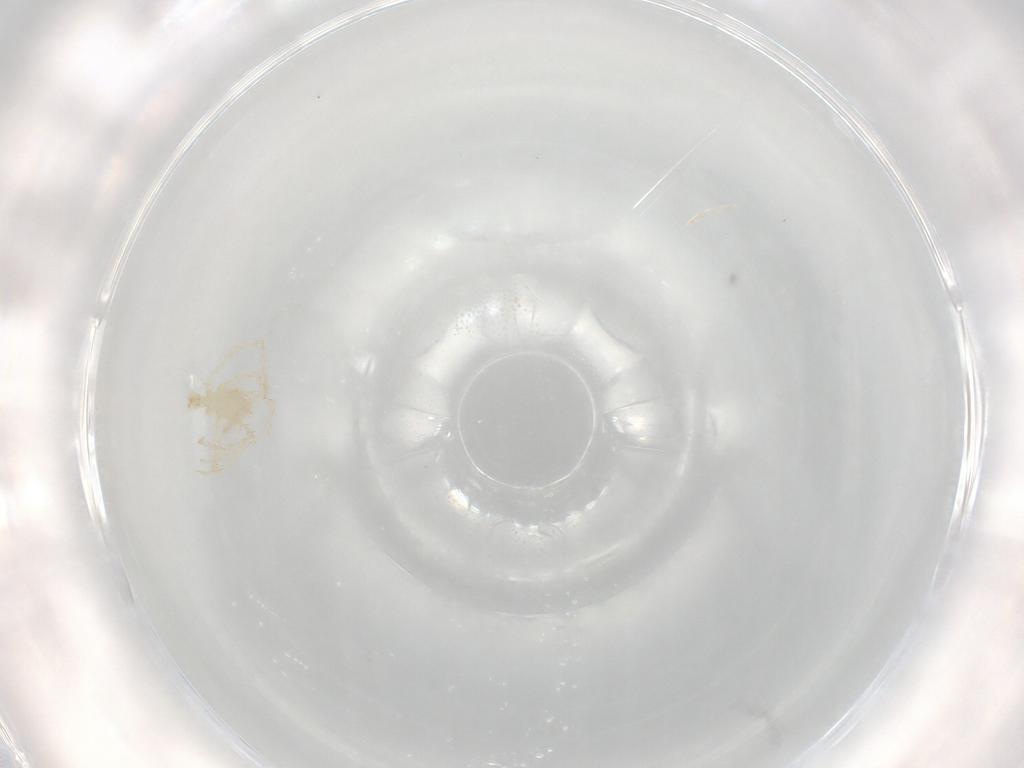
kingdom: Animalia
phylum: Arthropoda
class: Arachnida
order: Trombidiformes
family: Erythraeidae
